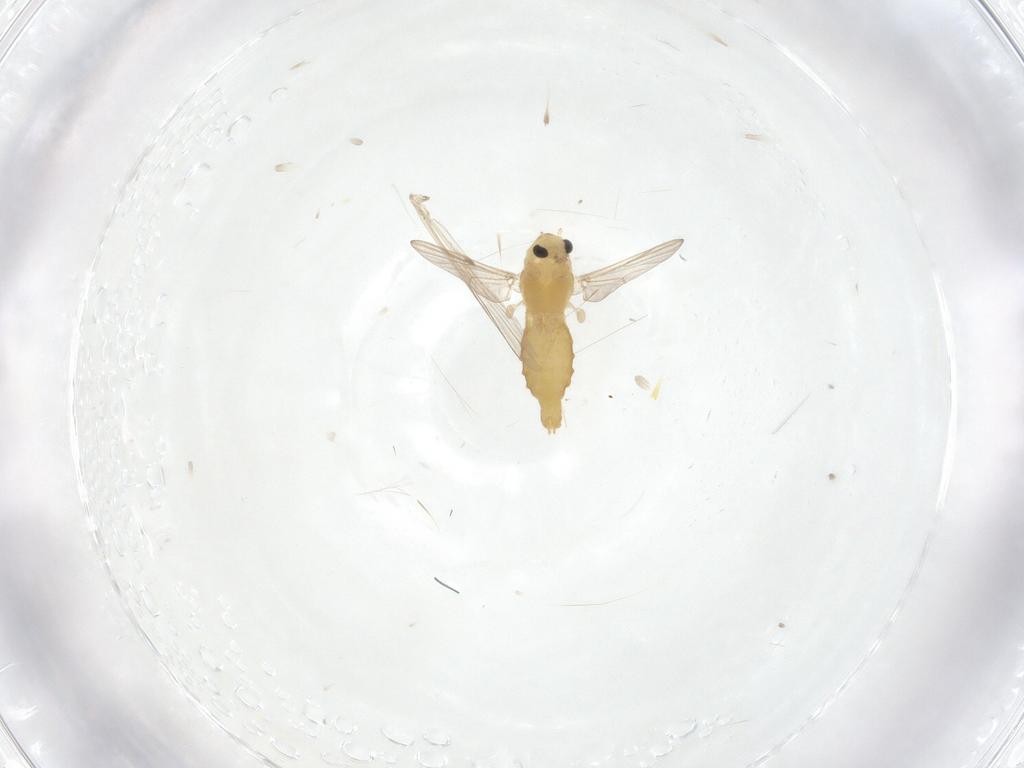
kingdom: Animalia
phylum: Arthropoda
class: Insecta
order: Diptera
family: Chironomidae
